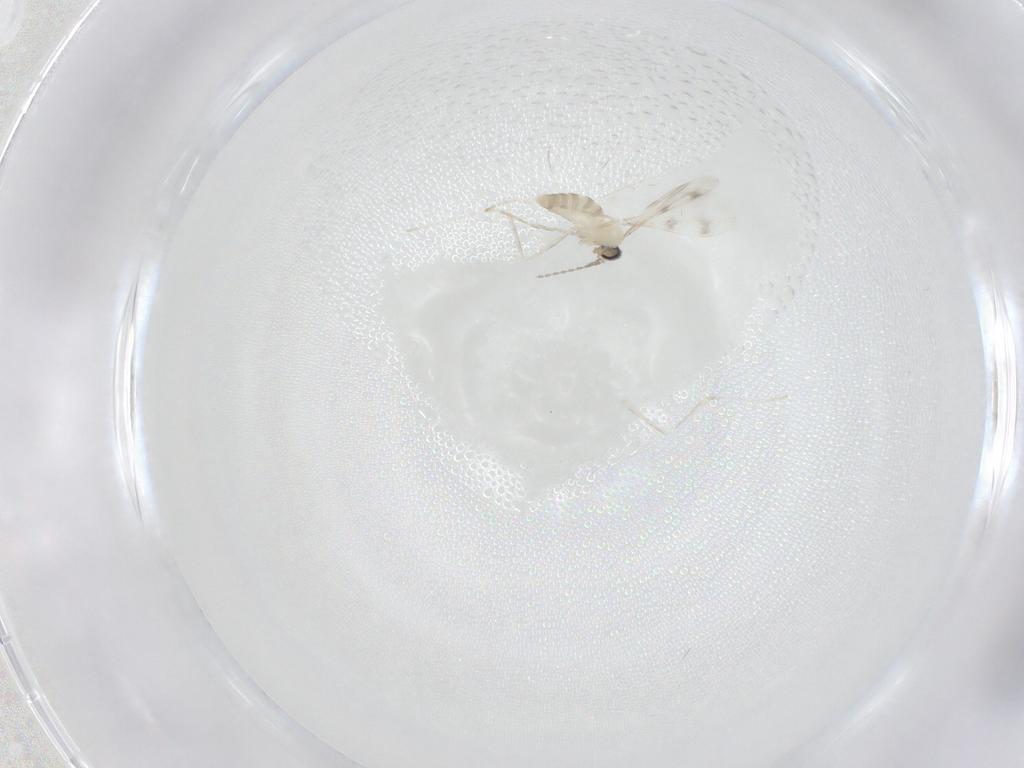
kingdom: Animalia
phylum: Arthropoda
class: Insecta
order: Diptera
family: Cecidomyiidae
